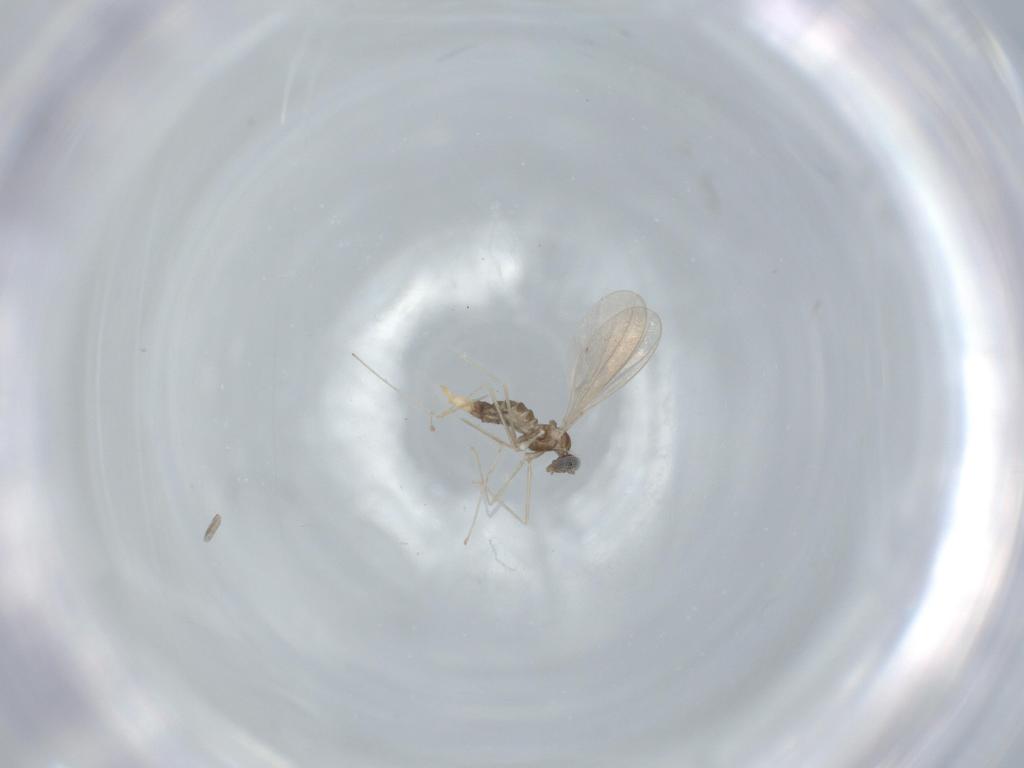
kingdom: Animalia
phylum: Arthropoda
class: Insecta
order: Diptera
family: Cecidomyiidae
